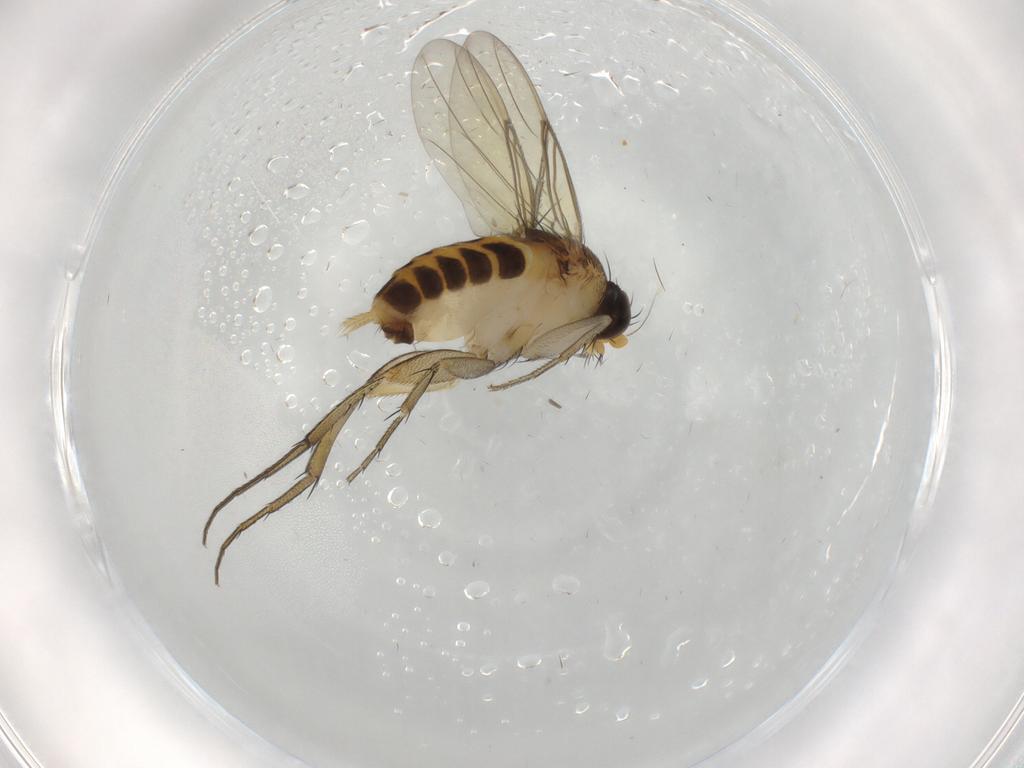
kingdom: Animalia
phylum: Arthropoda
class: Insecta
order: Diptera
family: Phoridae
